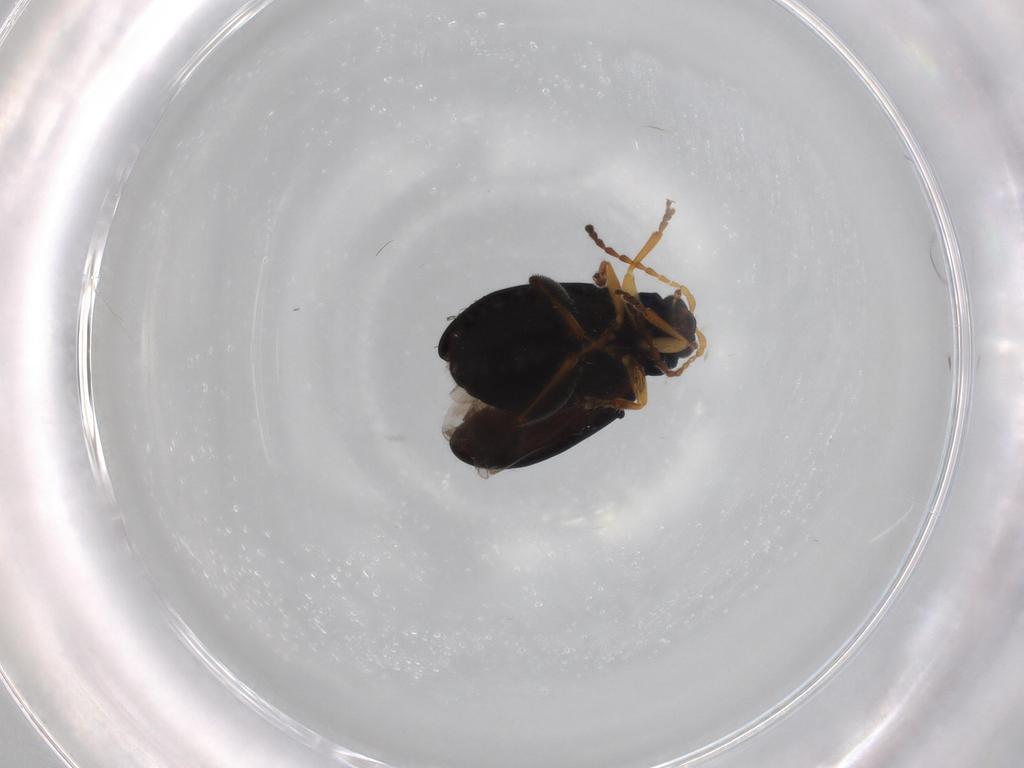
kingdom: Animalia
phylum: Arthropoda
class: Insecta
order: Coleoptera
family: Chrysomelidae
